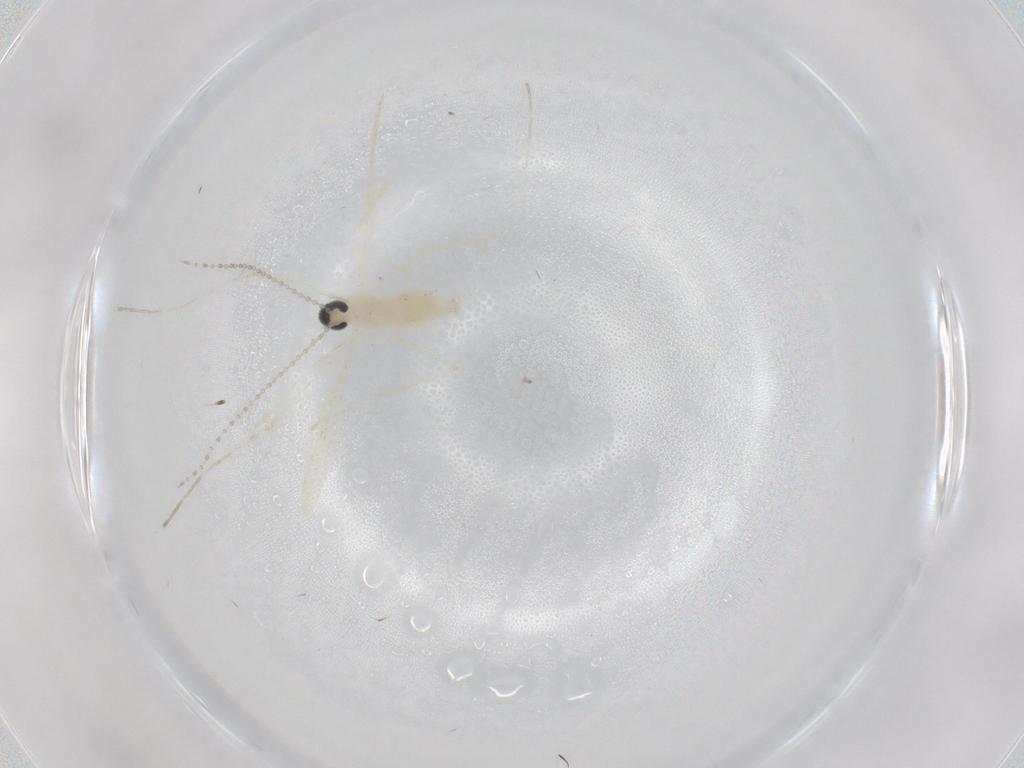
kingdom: Animalia
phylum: Arthropoda
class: Insecta
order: Diptera
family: Cecidomyiidae
